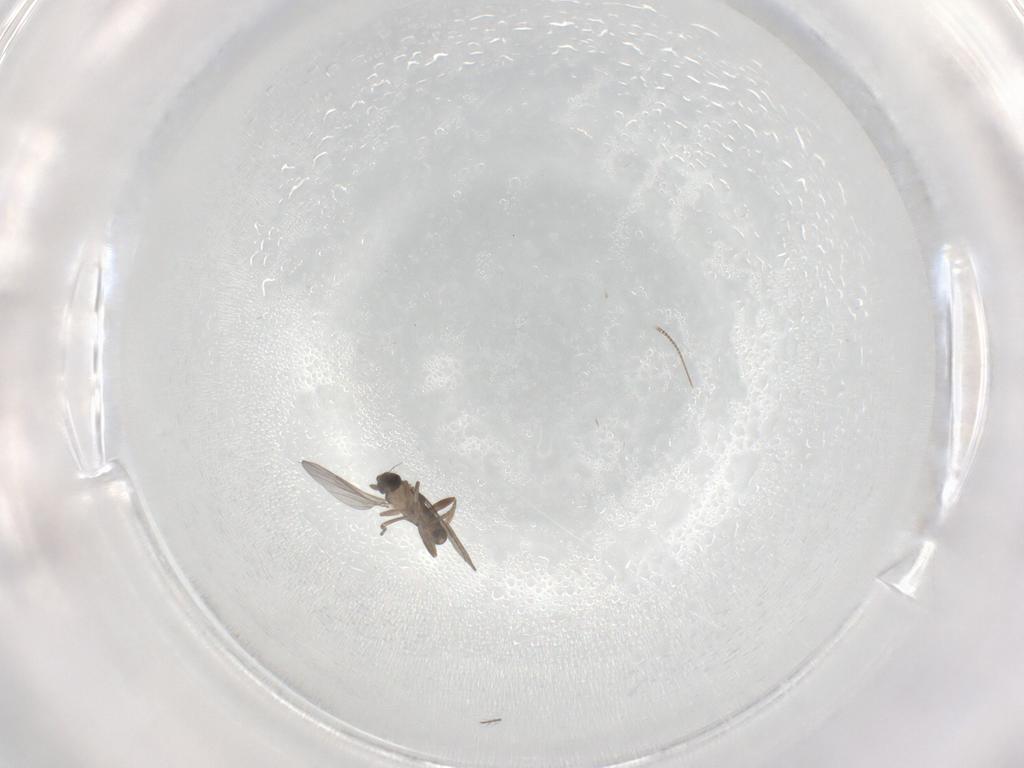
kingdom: Animalia
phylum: Arthropoda
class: Insecta
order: Diptera
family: Chironomidae
